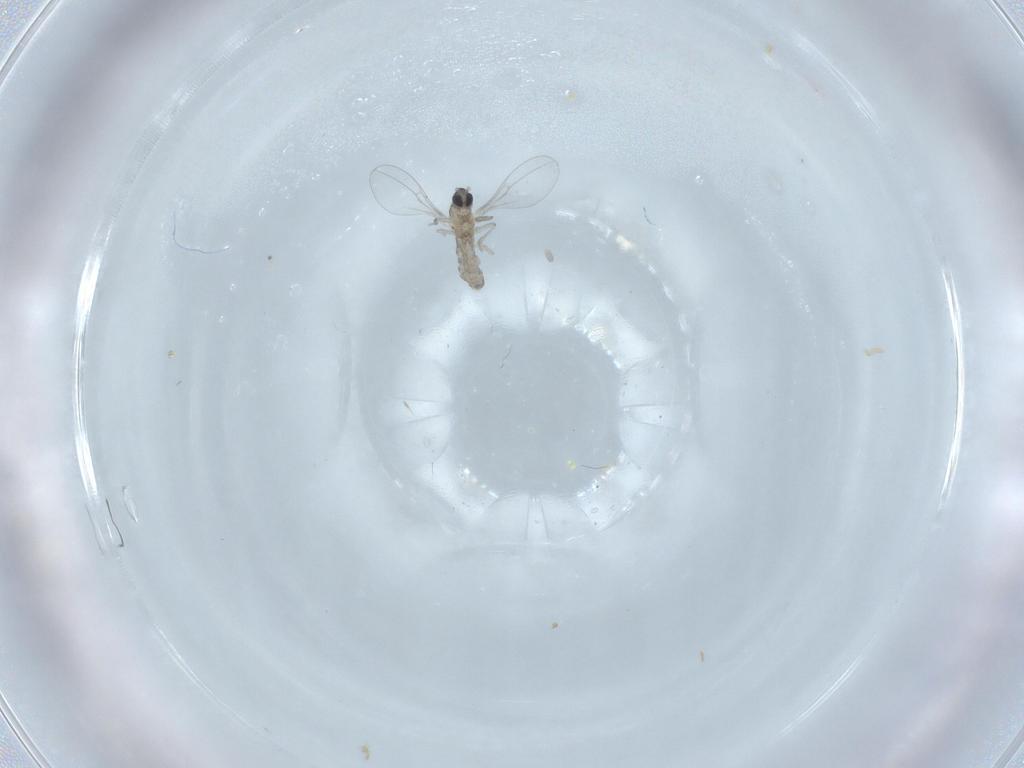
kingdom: Animalia
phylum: Arthropoda
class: Insecta
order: Diptera
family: Cecidomyiidae
